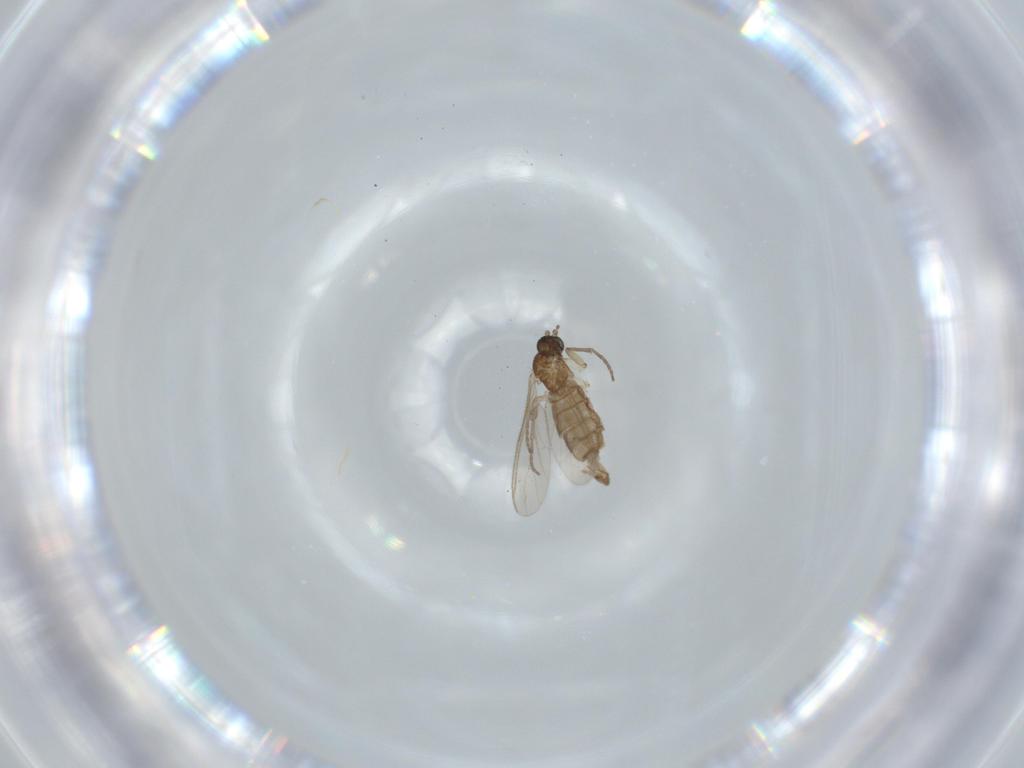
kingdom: Animalia
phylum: Arthropoda
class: Insecta
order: Diptera
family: Sciaridae
